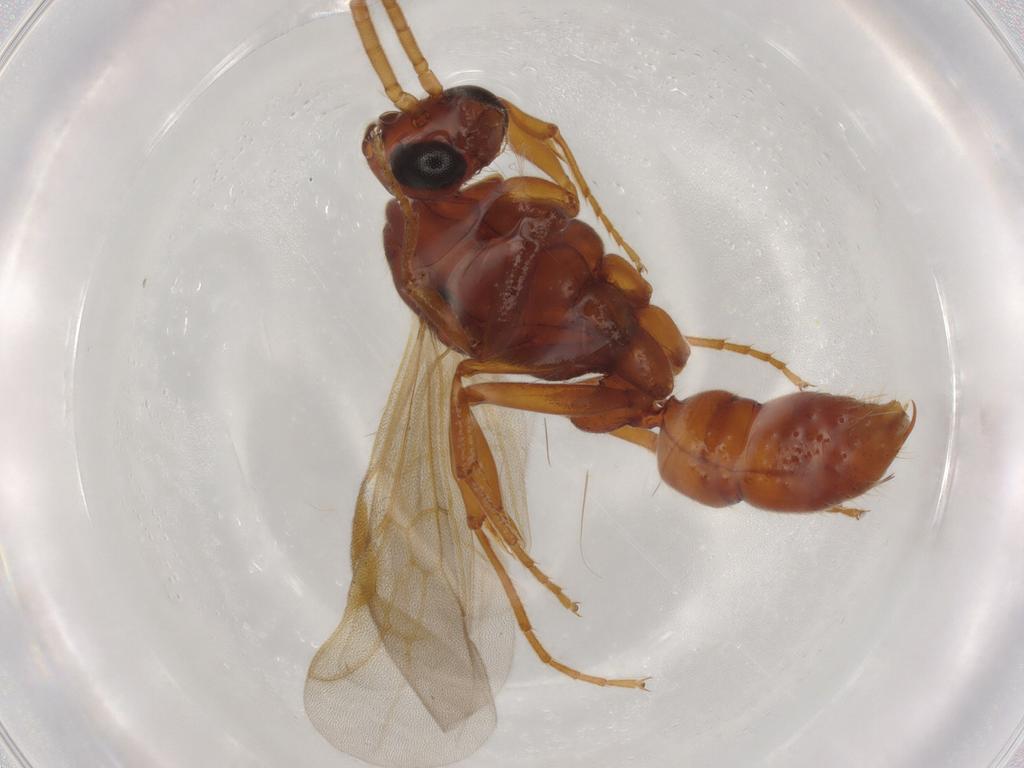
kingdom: Animalia
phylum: Arthropoda
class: Insecta
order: Hymenoptera
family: Formicidae
